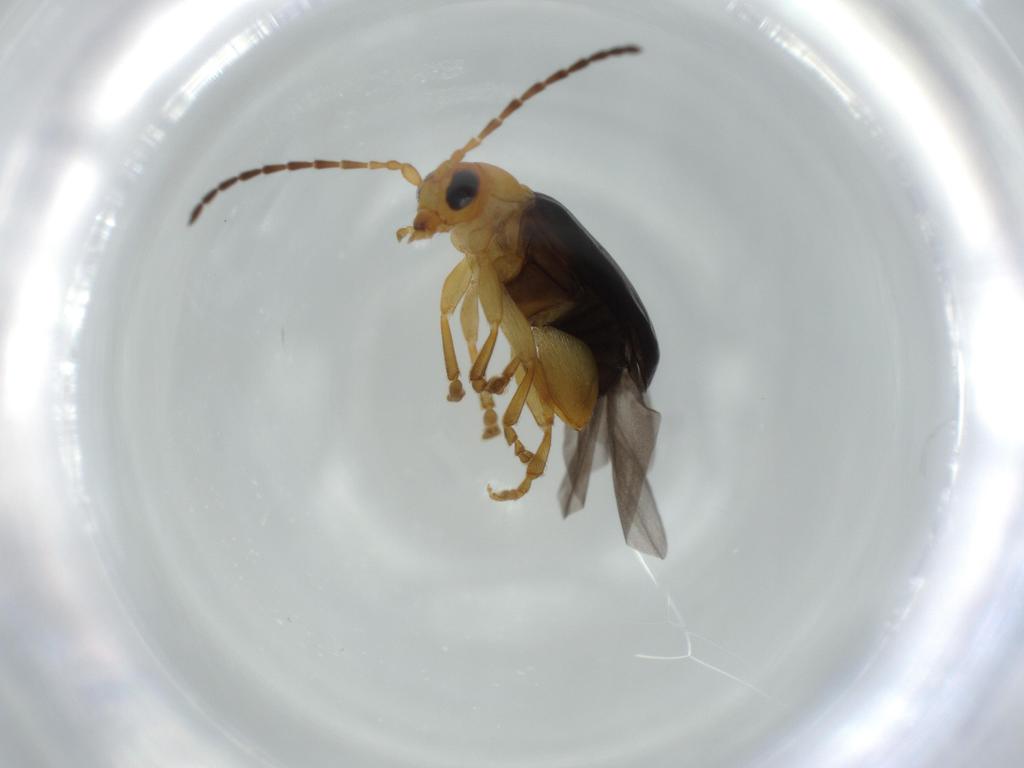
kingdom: Animalia
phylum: Arthropoda
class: Insecta
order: Coleoptera
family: Chrysomelidae
